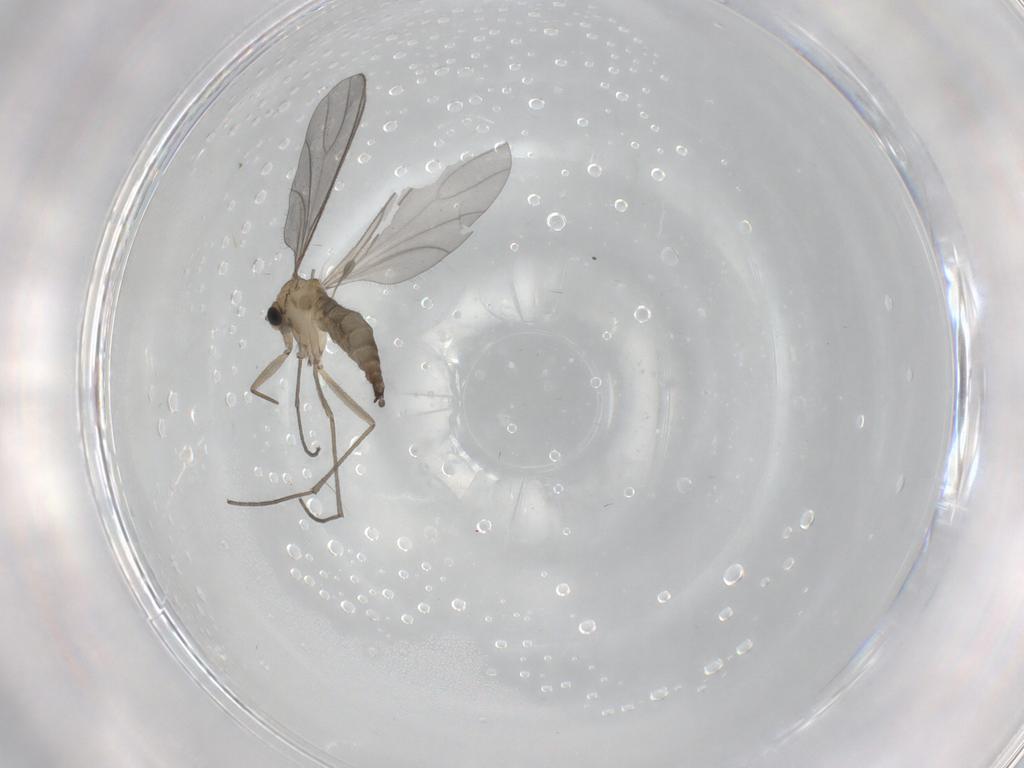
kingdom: Animalia
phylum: Arthropoda
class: Insecta
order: Diptera
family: Sciaridae
